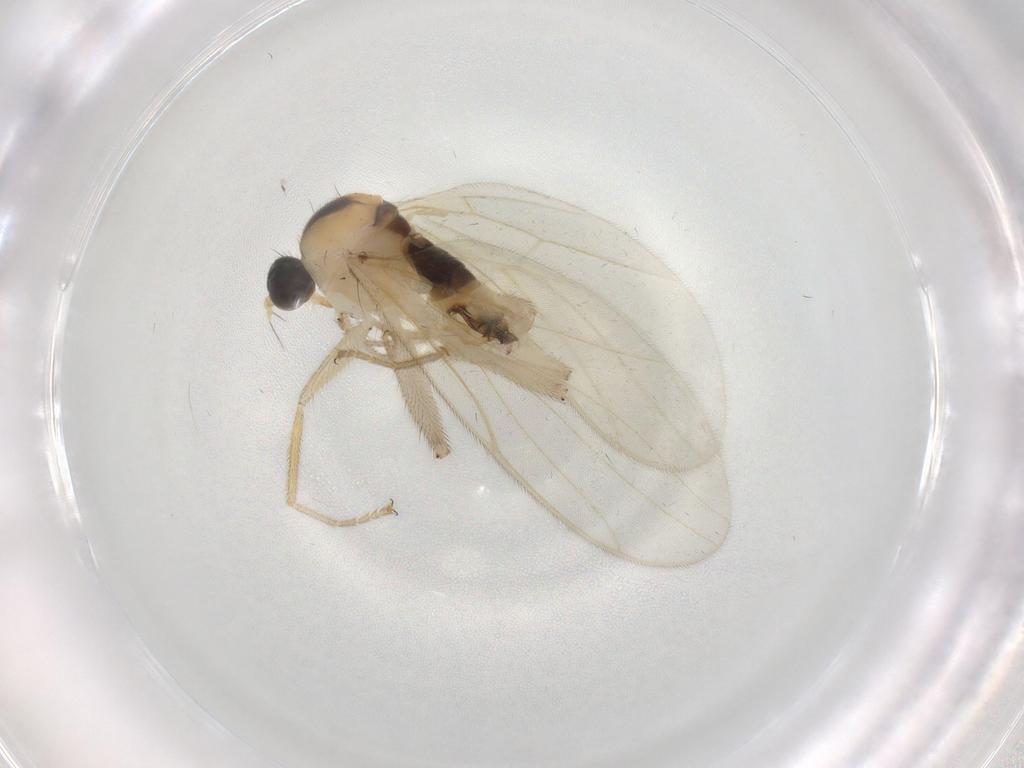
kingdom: Animalia
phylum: Arthropoda
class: Insecta
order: Diptera
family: Hybotidae
